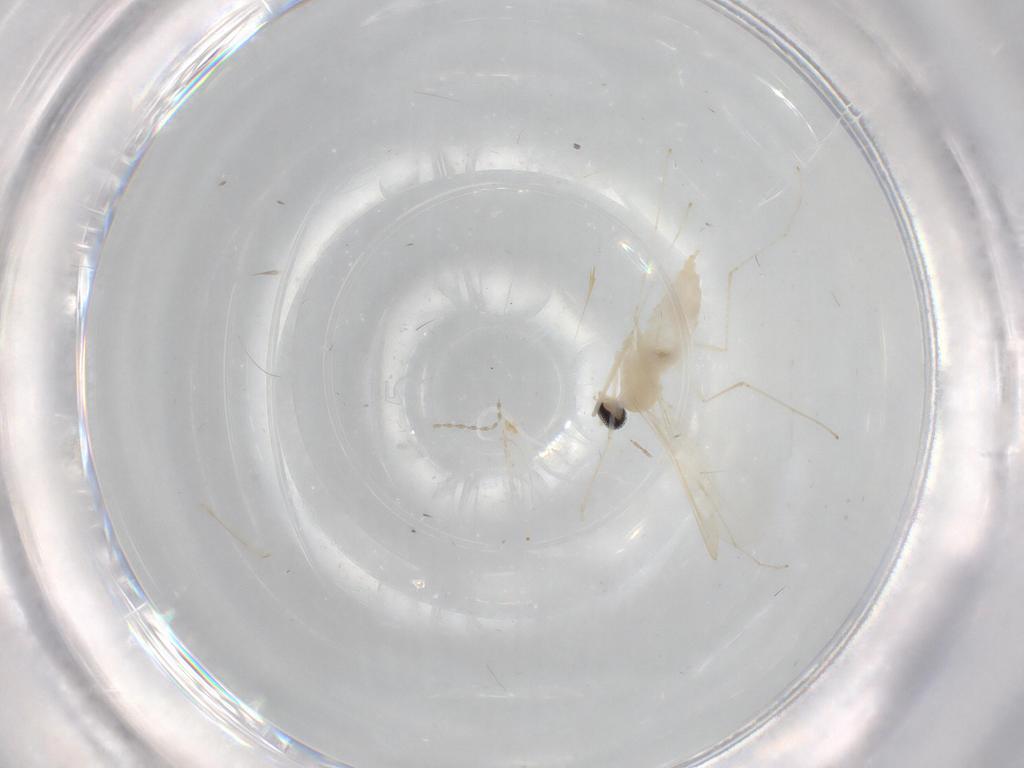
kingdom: Animalia
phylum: Arthropoda
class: Insecta
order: Diptera
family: Cecidomyiidae
